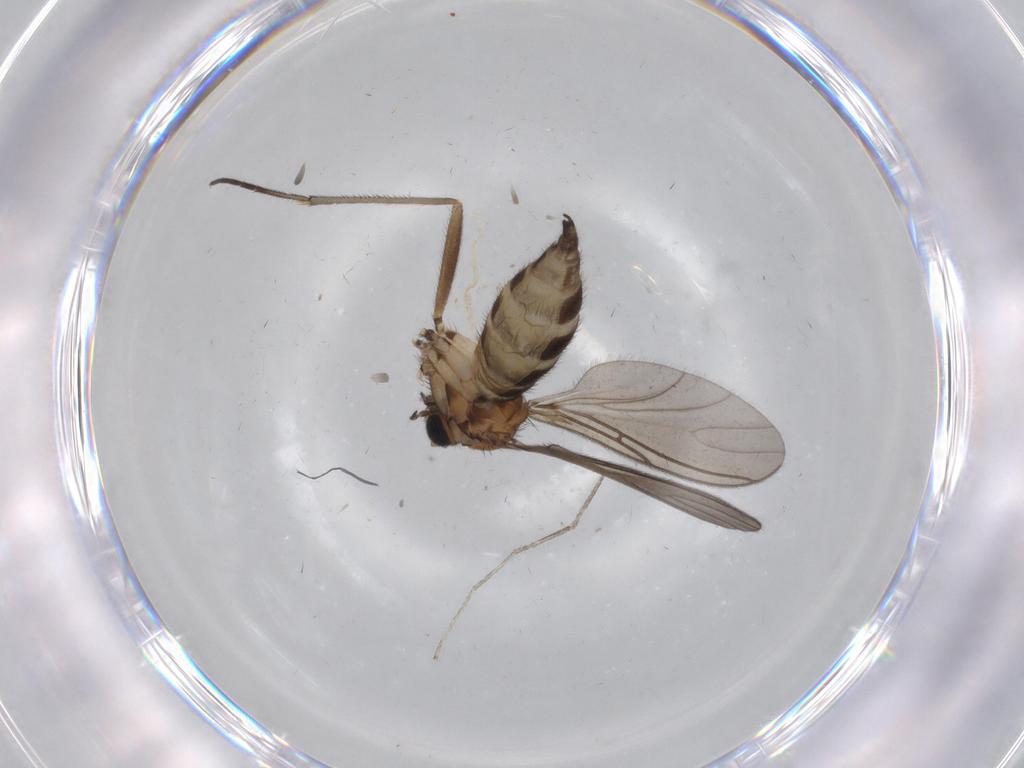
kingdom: Animalia
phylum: Arthropoda
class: Insecta
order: Diptera
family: Sciaridae
